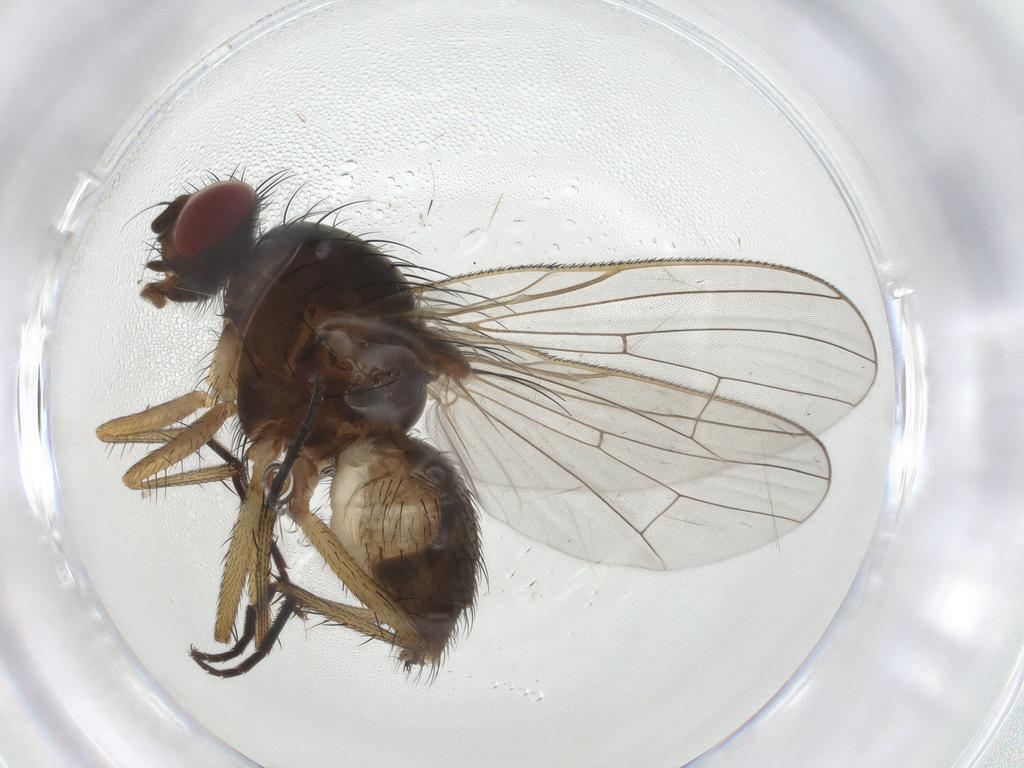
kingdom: Animalia
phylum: Arthropoda
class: Insecta
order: Diptera
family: Anthomyiidae
